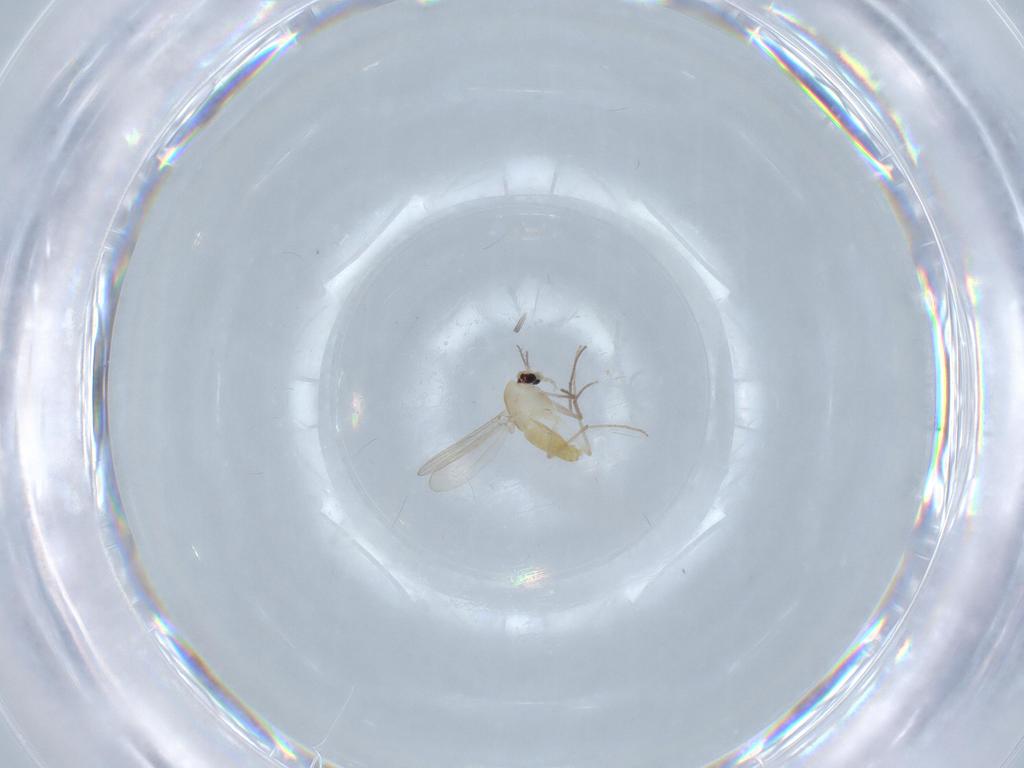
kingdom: Animalia
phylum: Arthropoda
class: Insecta
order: Diptera
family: Chironomidae
